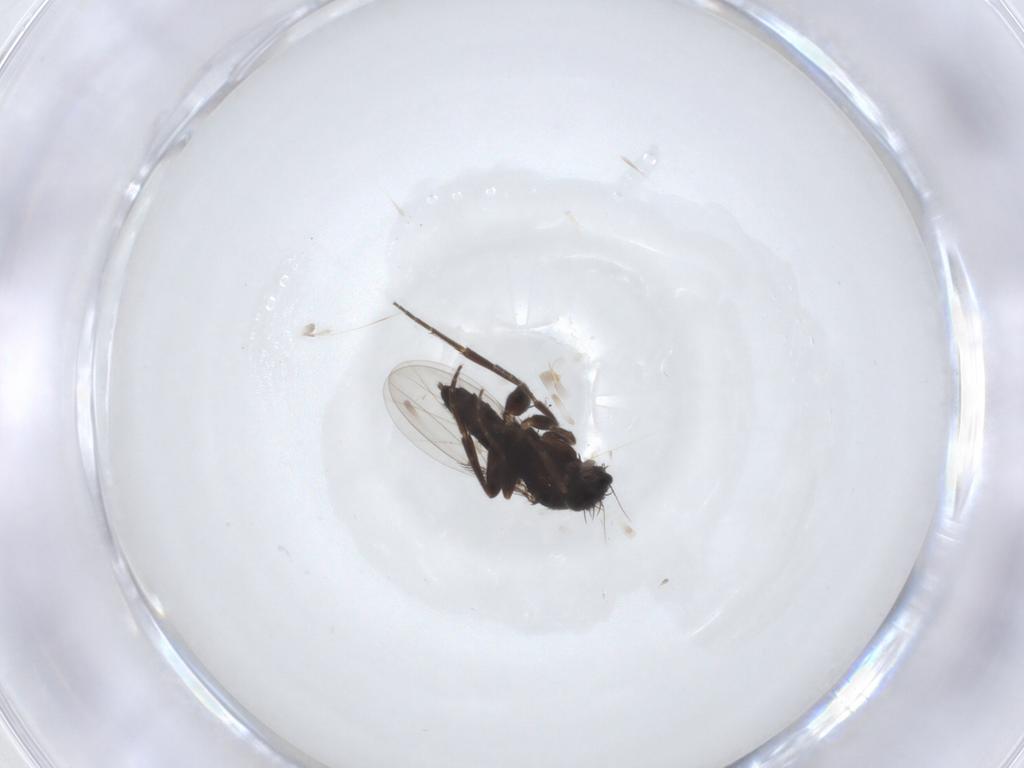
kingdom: Animalia
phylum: Arthropoda
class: Insecta
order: Diptera
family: Phoridae
